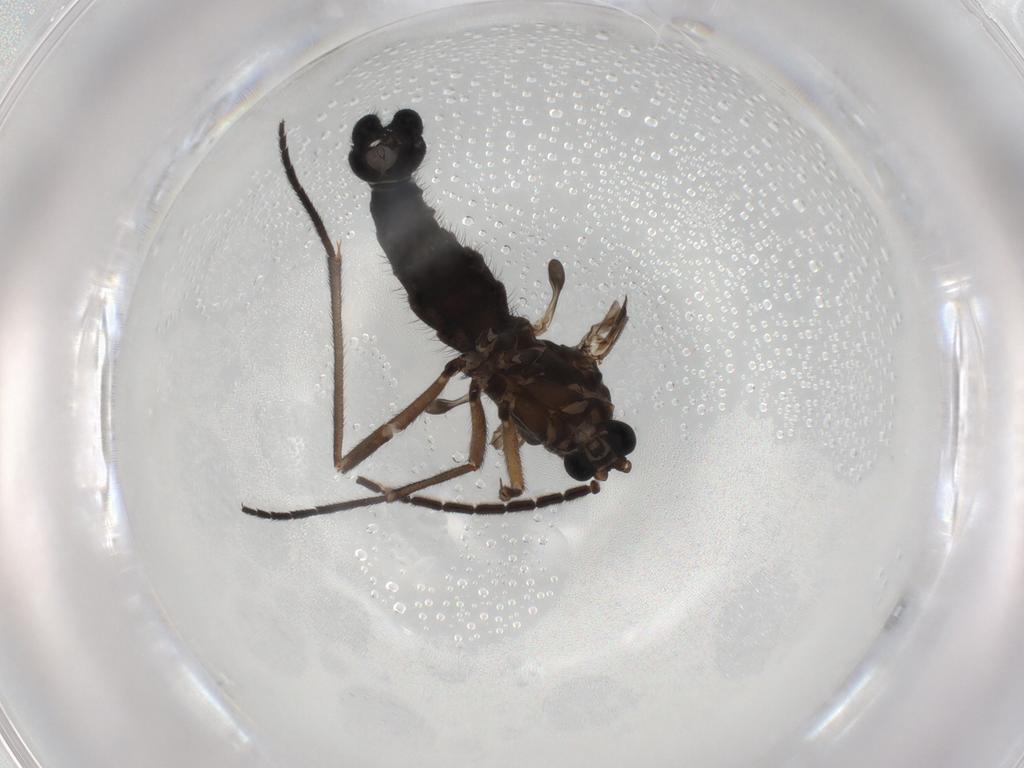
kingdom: Animalia
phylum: Arthropoda
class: Insecta
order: Diptera
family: Sciaridae
